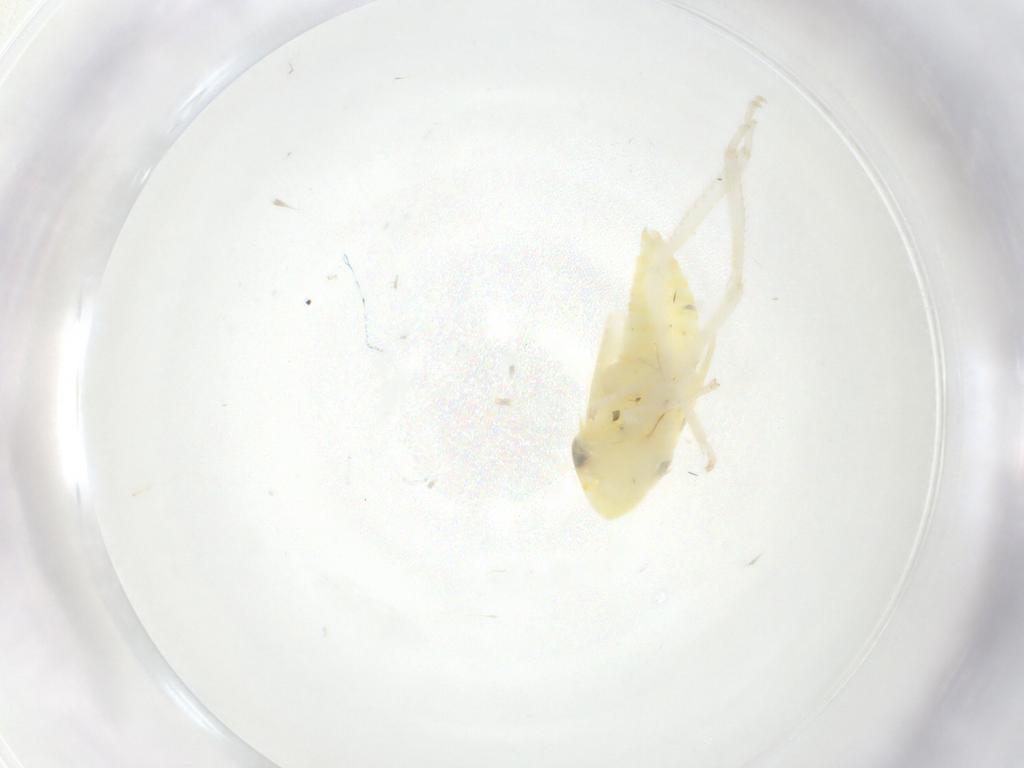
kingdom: Animalia
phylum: Arthropoda
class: Insecta
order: Hemiptera
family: Cicadellidae
